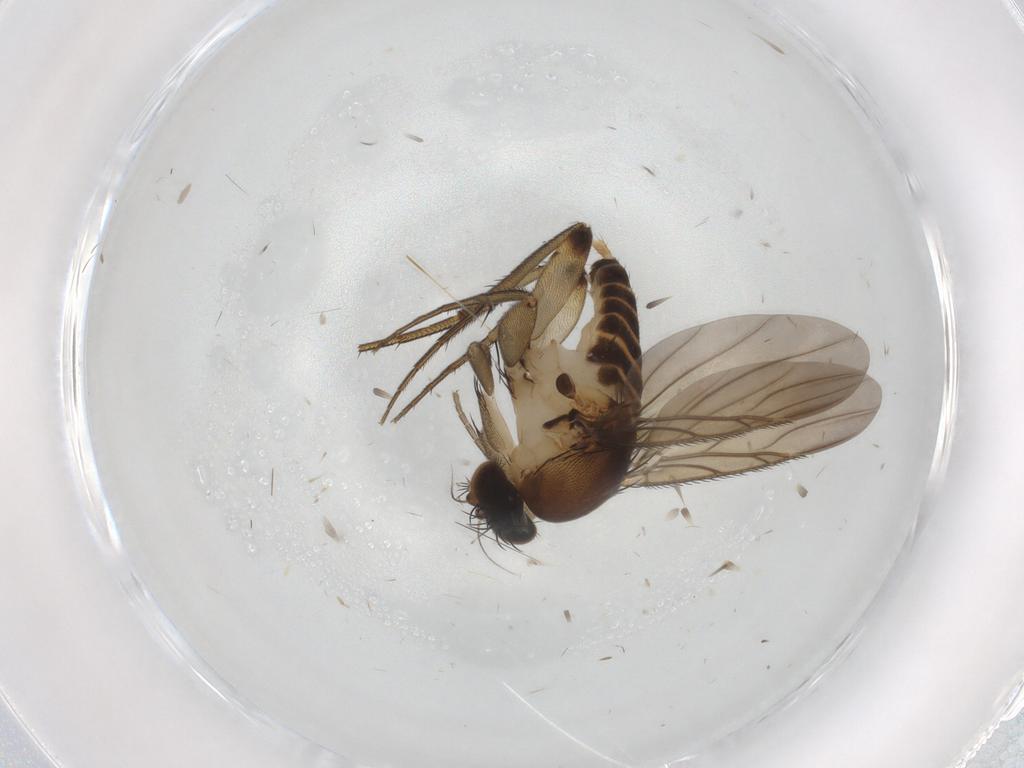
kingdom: Animalia
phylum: Arthropoda
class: Insecta
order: Diptera
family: Phoridae
